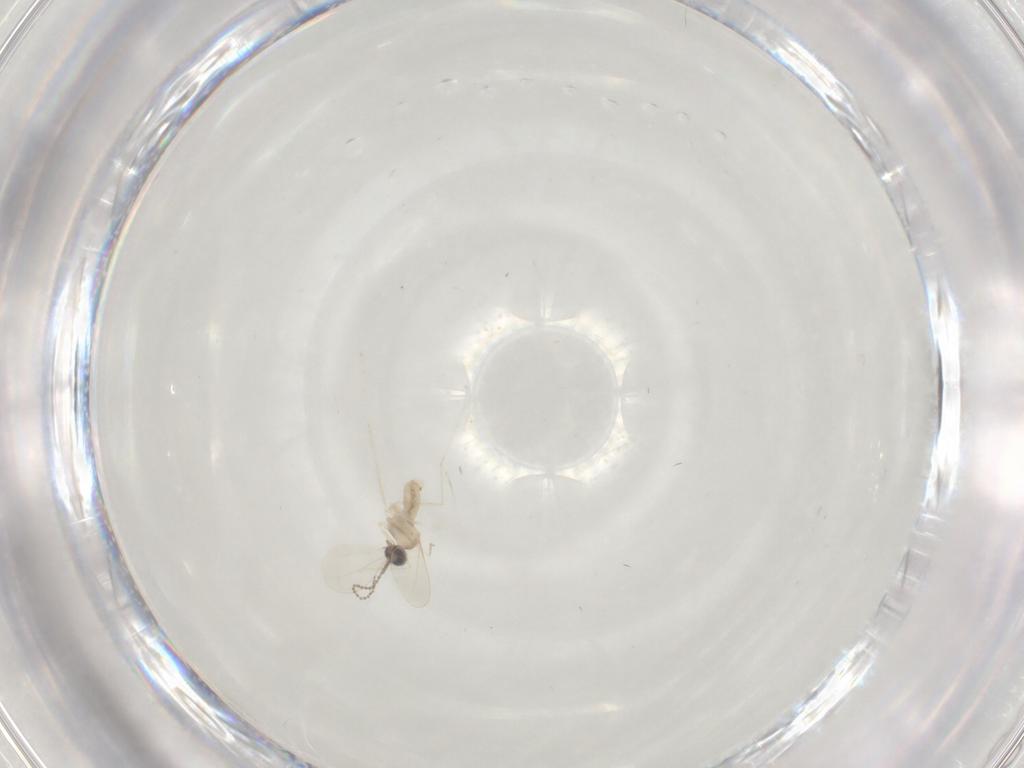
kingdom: Animalia
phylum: Arthropoda
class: Insecta
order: Diptera
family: Cecidomyiidae
